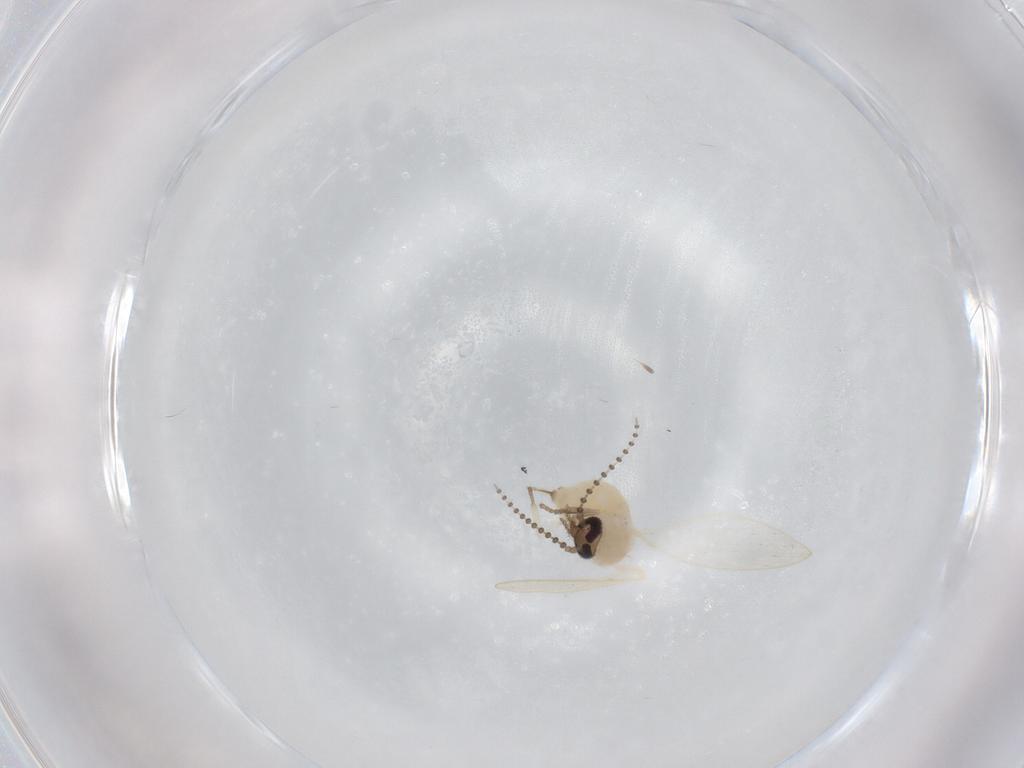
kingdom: Animalia
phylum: Arthropoda
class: Insecta
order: Diptera
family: Psychodidae
